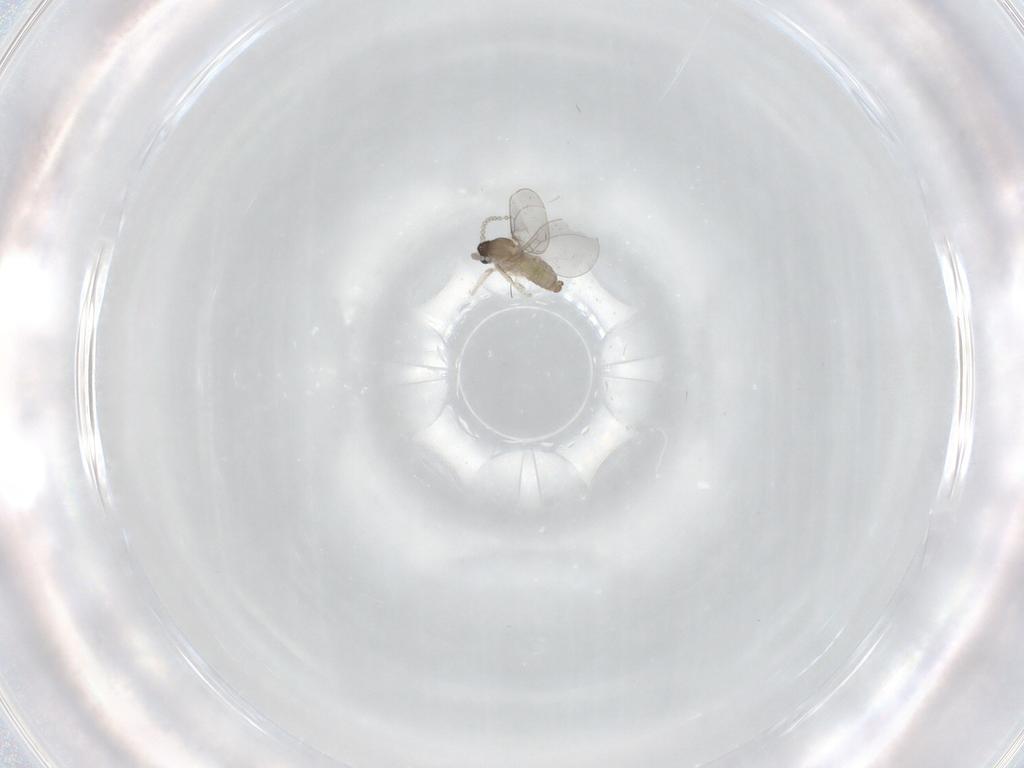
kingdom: Animalia
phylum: Arthropoda
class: Insecta
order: Diptera
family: Cecidomyiidae
